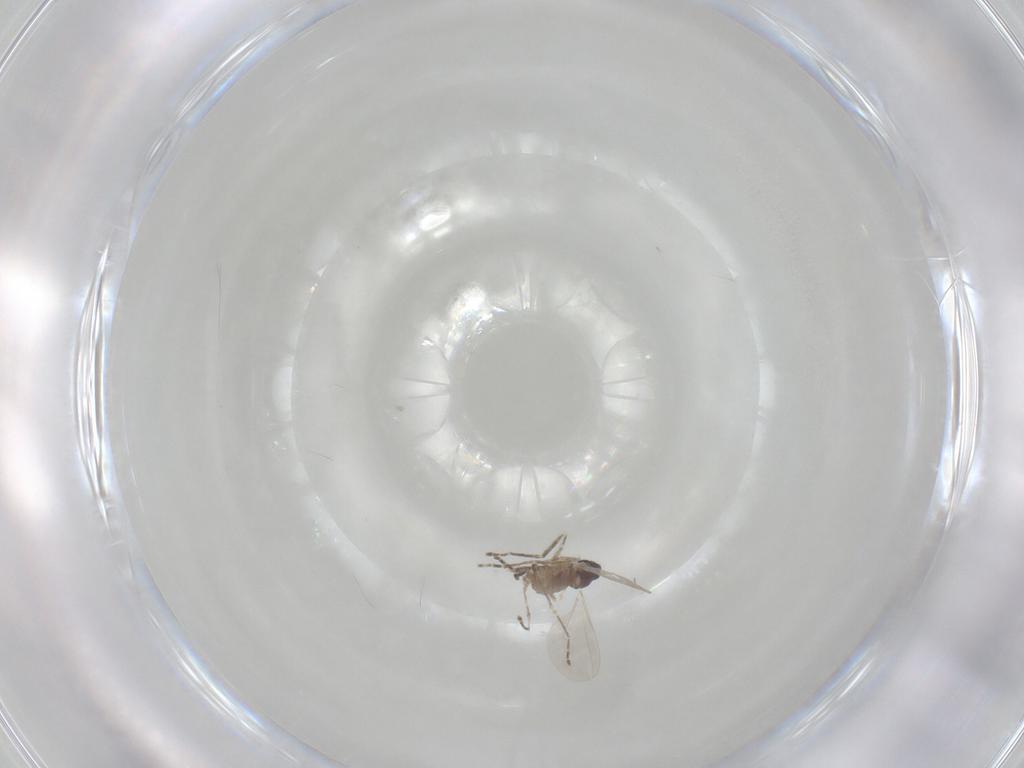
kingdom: Animalia
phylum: Arthropoda
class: Insecta
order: Diptera
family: Cecidomyiidae
